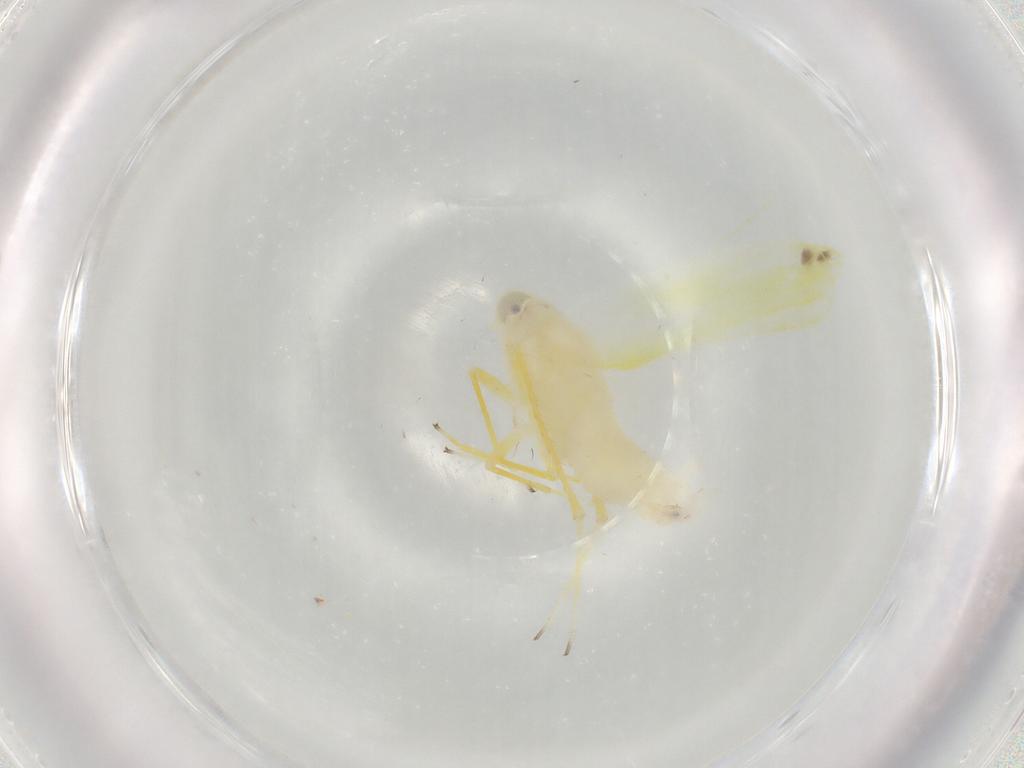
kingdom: Animalia
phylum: Arthropoda
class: Insecta
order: Hemiptera
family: Cicadellidae
